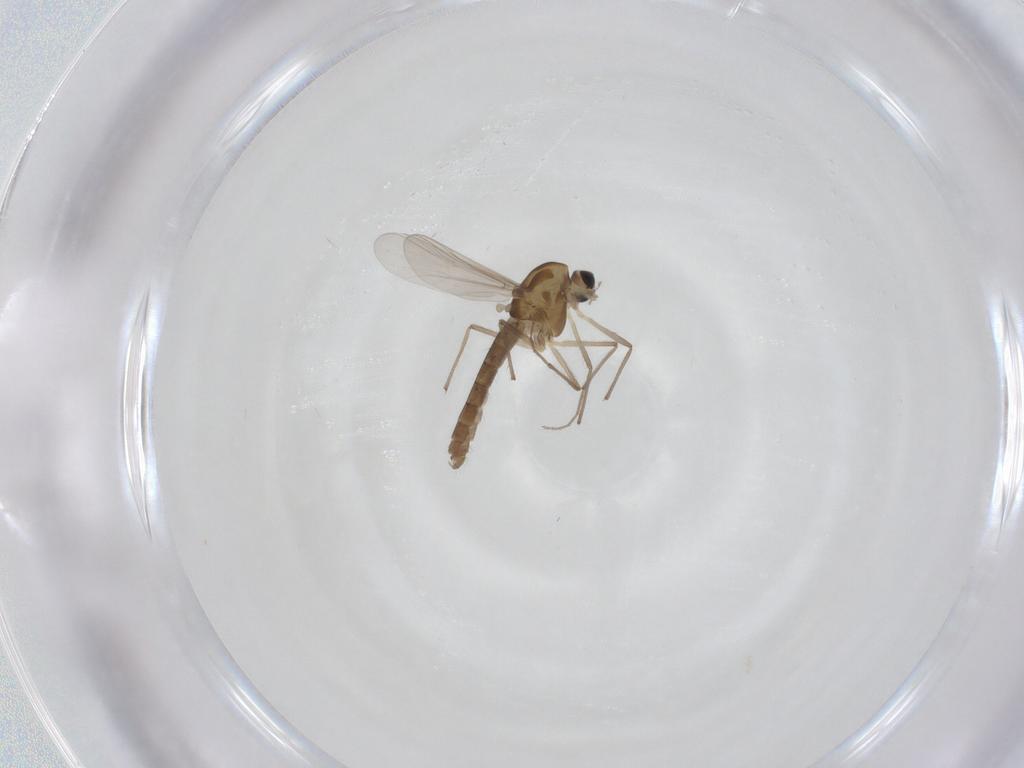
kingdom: Animalia
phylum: Arthropoda
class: Insecta
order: Diptera
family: Chironomidae
